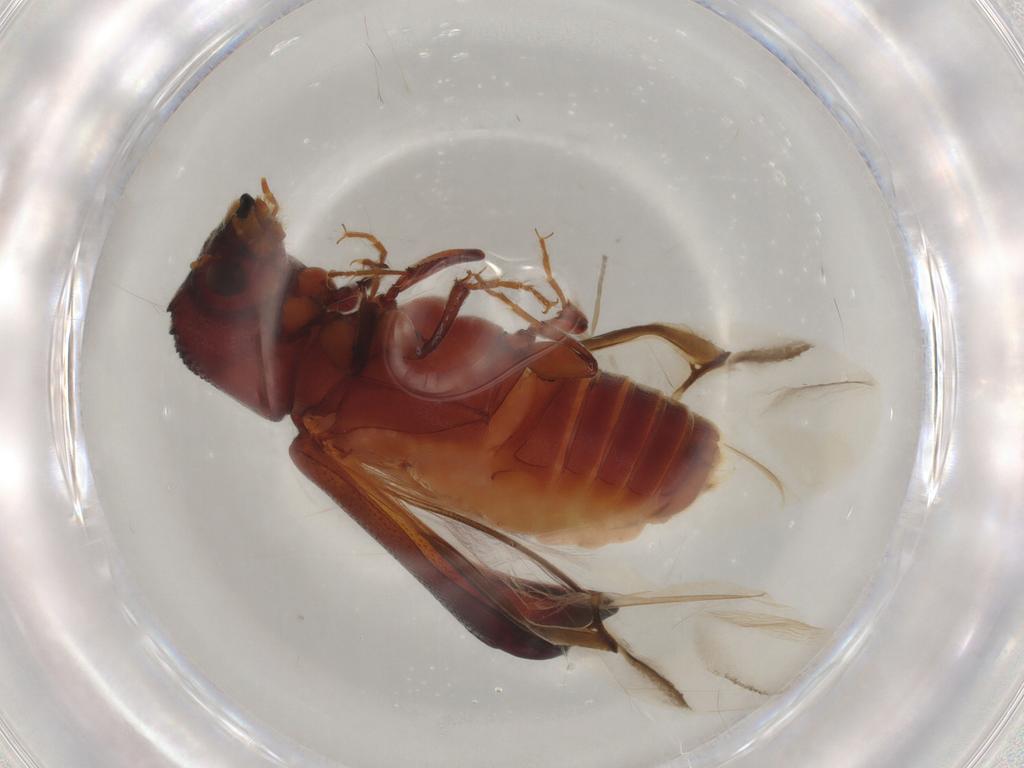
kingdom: Animalia
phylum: Arthropoda
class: Insecta
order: Coleoptera
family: Bostrichidae
